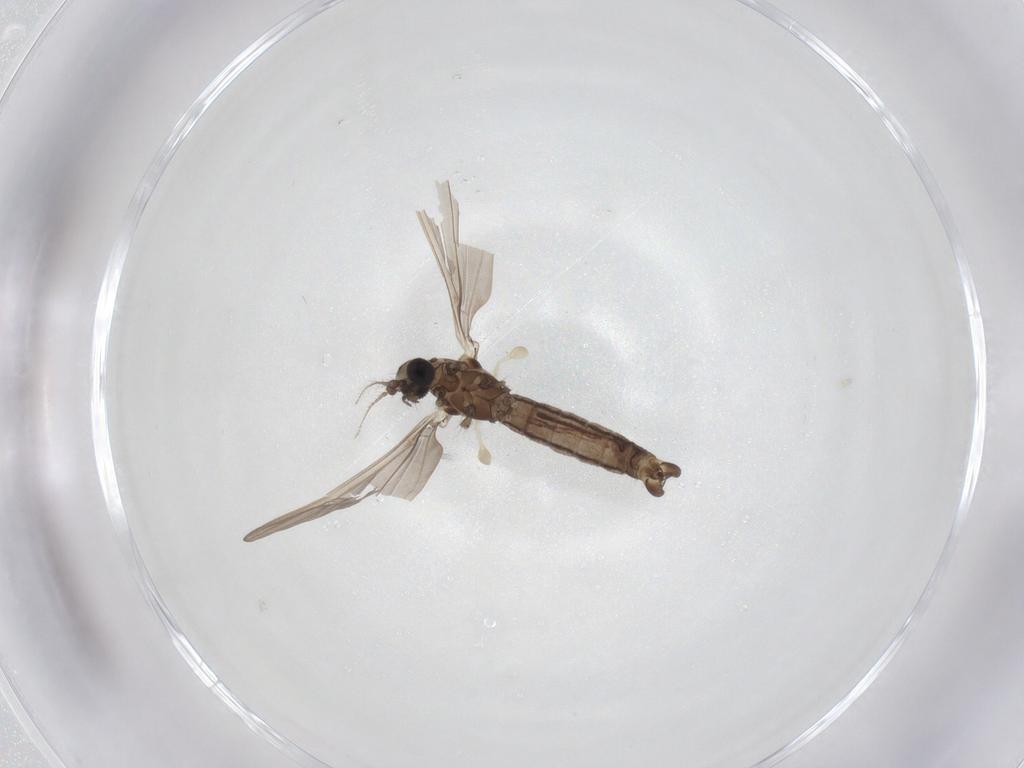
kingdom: Animalia
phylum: Arthropoda
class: Insecta
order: Diptera
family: Limoniidae
